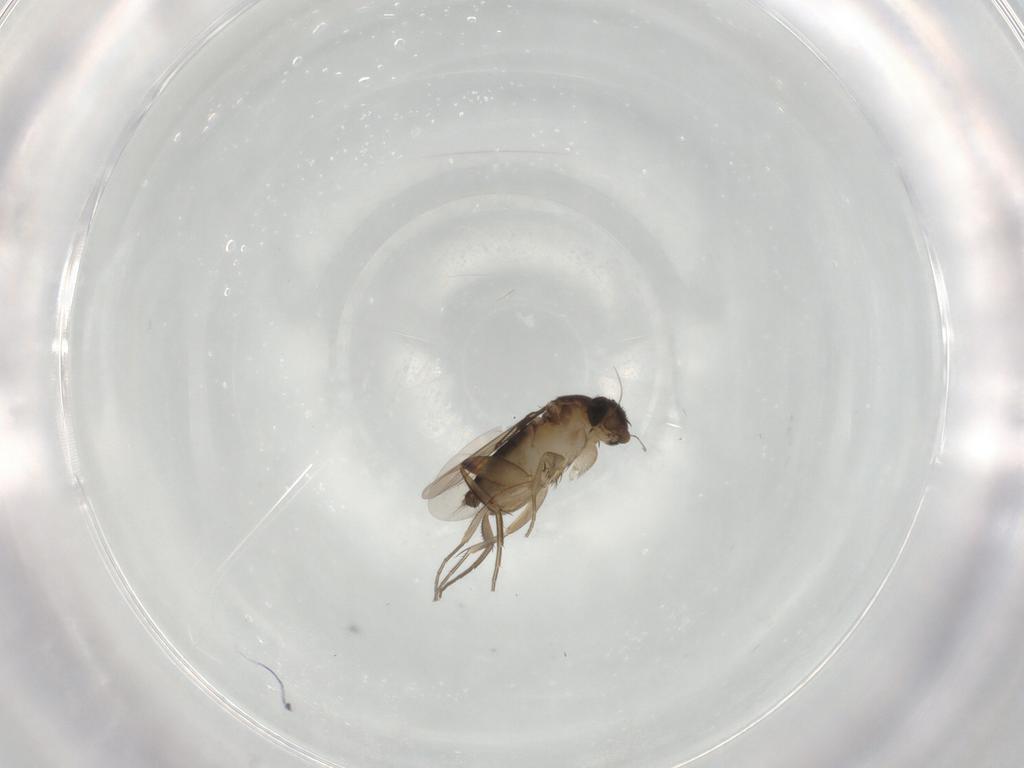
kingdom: Animalia
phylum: Arthropoda
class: Insecta
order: Diptera
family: Phoridae
